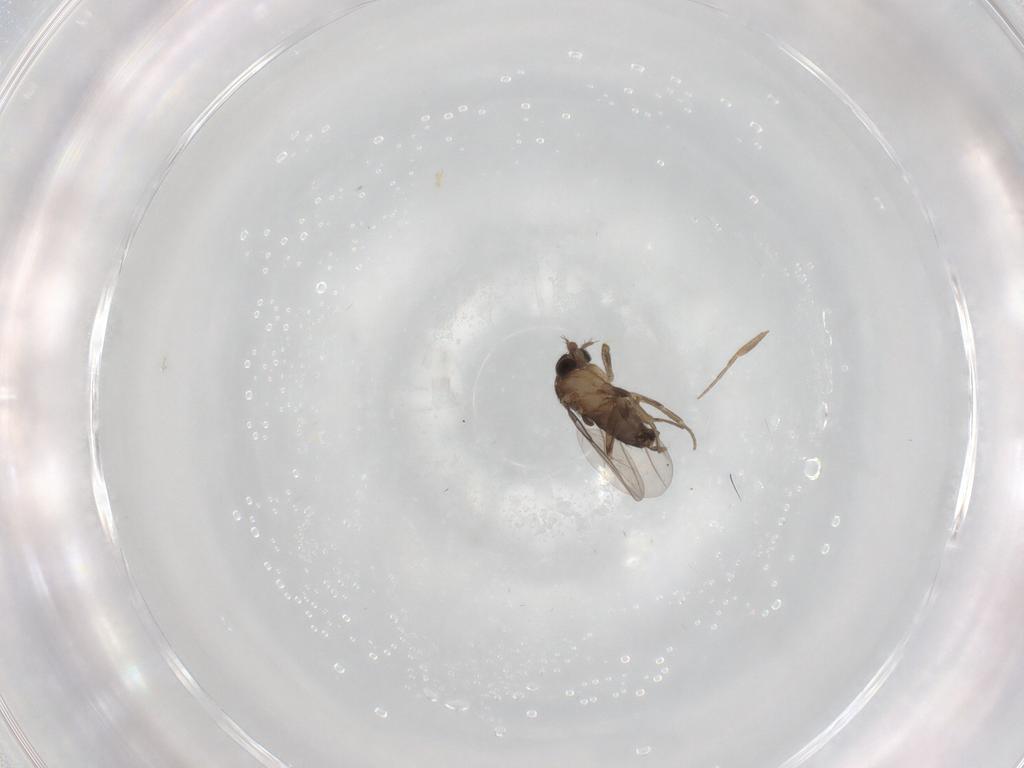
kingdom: Animalia
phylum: Arthropoda
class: Insecta
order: Diptera
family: Phoridae
